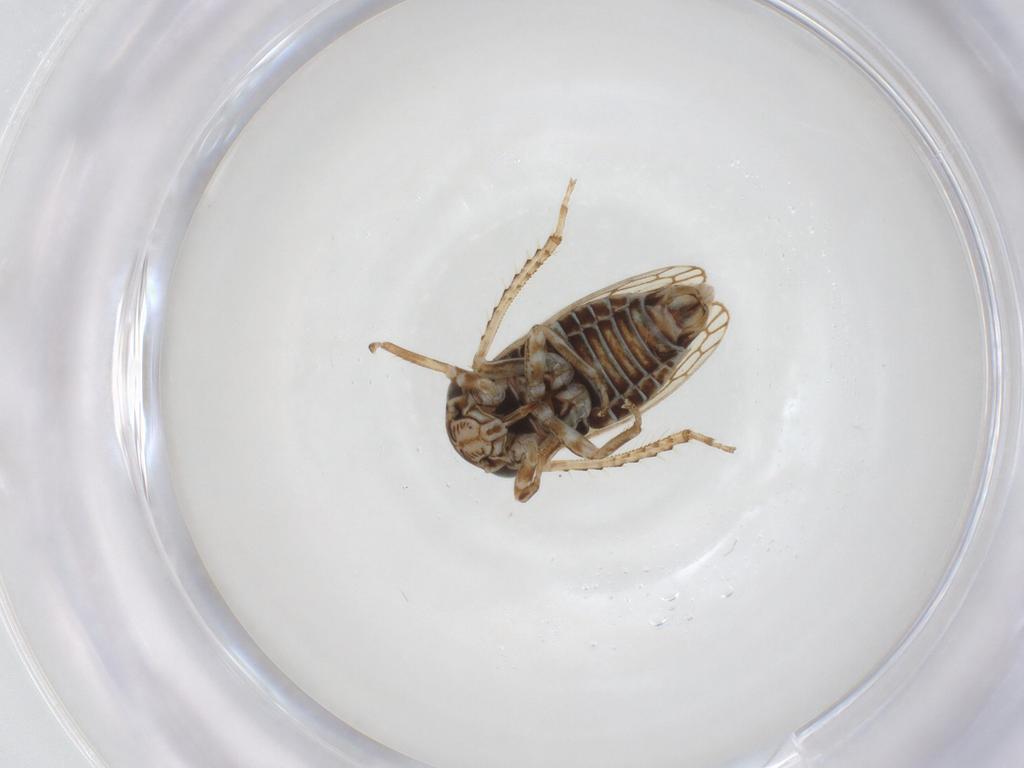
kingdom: Animalia
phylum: Arthropoda
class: Insecta
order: Hemiptera
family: Cicadellidae
